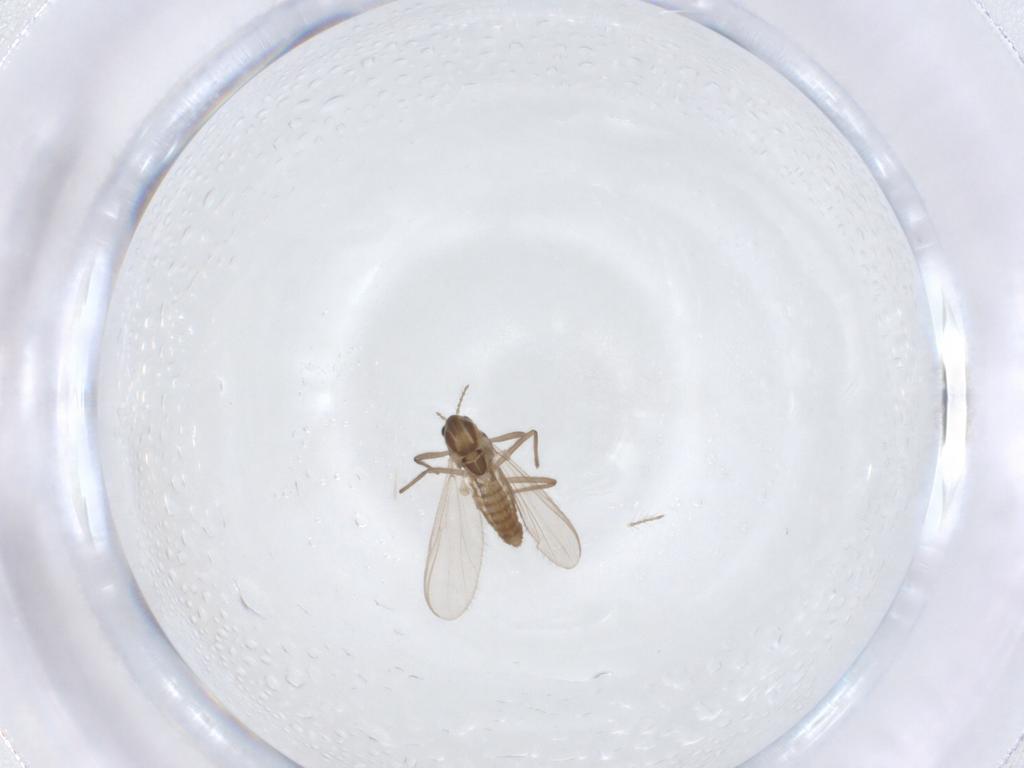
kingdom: Animalia
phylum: Arthropoda
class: Insecta
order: Diptera
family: Chironomidae
